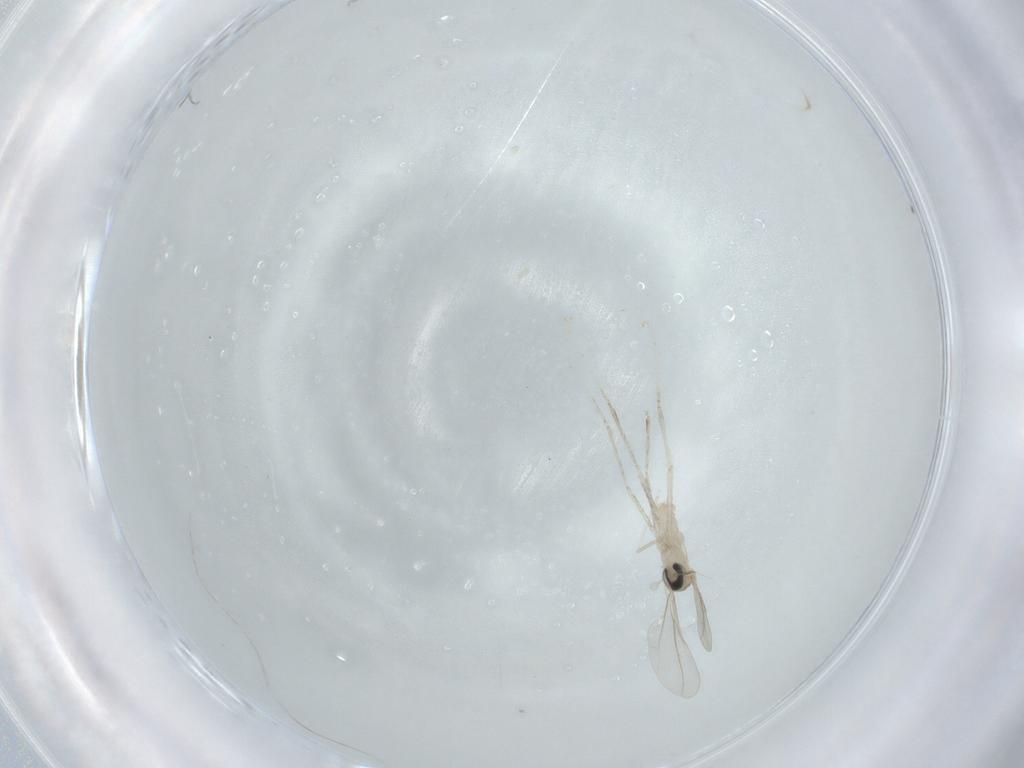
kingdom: Animalia
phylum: Arthropoda
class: Insecta
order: Diptera
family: Cecidomyiidae
